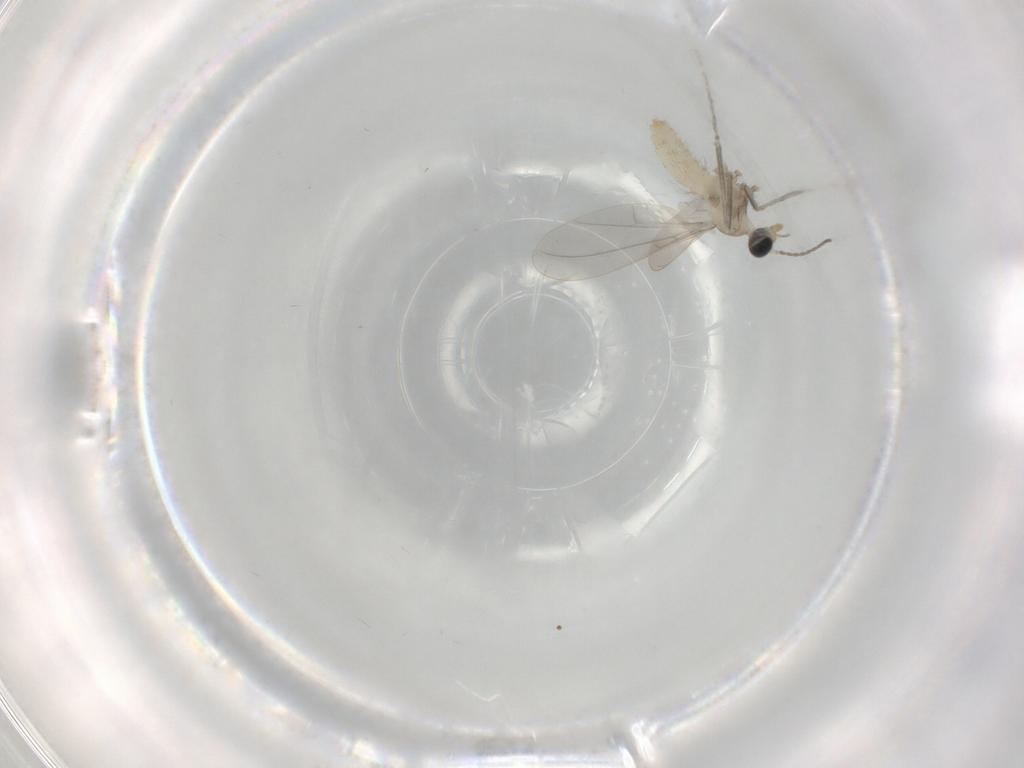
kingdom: Animalia
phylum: Arthropoda
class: Insecta
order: Diptera
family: Cecidomyiidae
